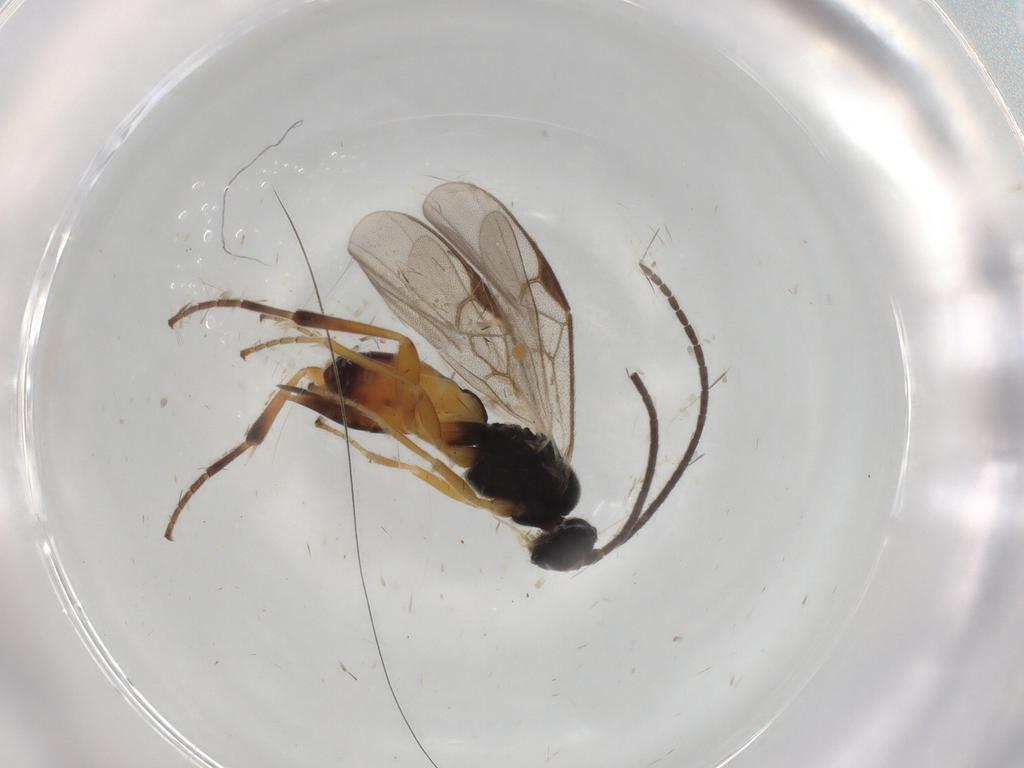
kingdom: Animalia
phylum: Arthropoda
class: Insecta
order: Hymenoptera
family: Braconidae
